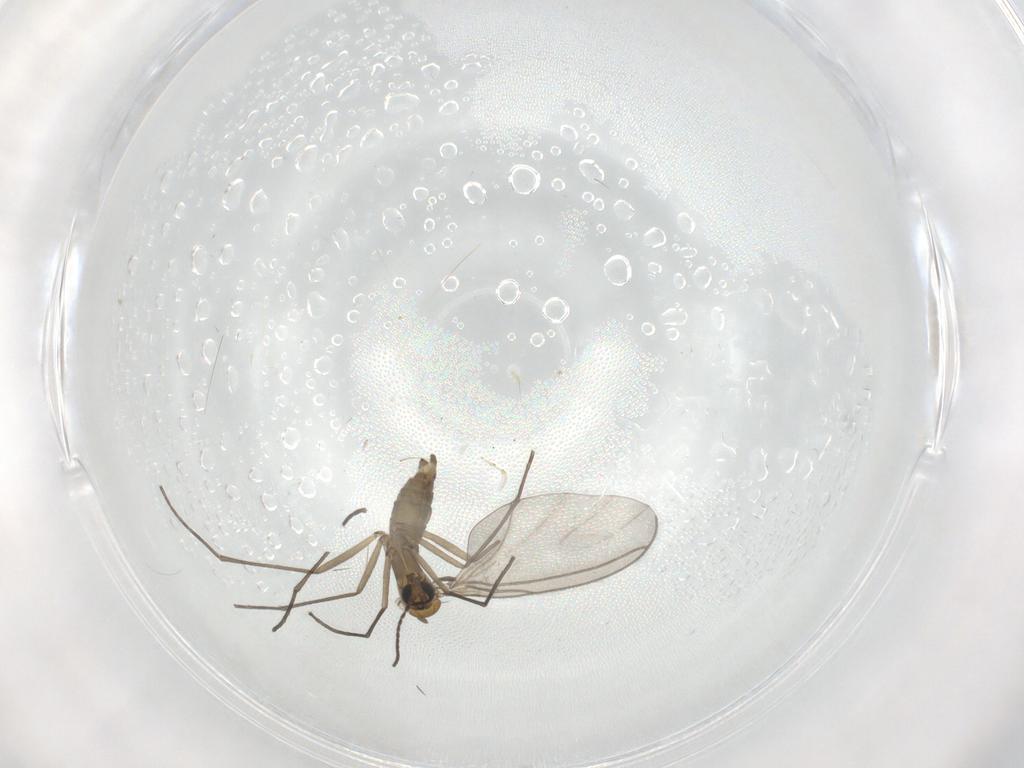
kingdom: Animalia
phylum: Arthropoda
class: Insecta
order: Diptera
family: Sciaridae
